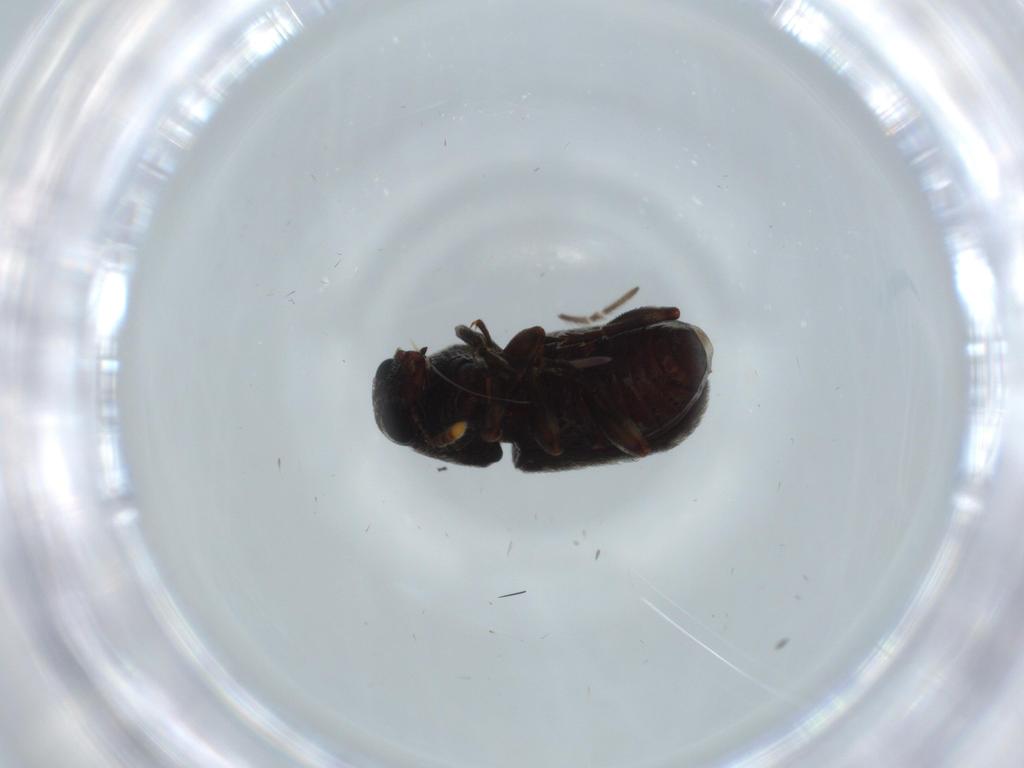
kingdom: Animalia
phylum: Arthropoda
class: Insecta
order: Coleoptera
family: Anthribidae
